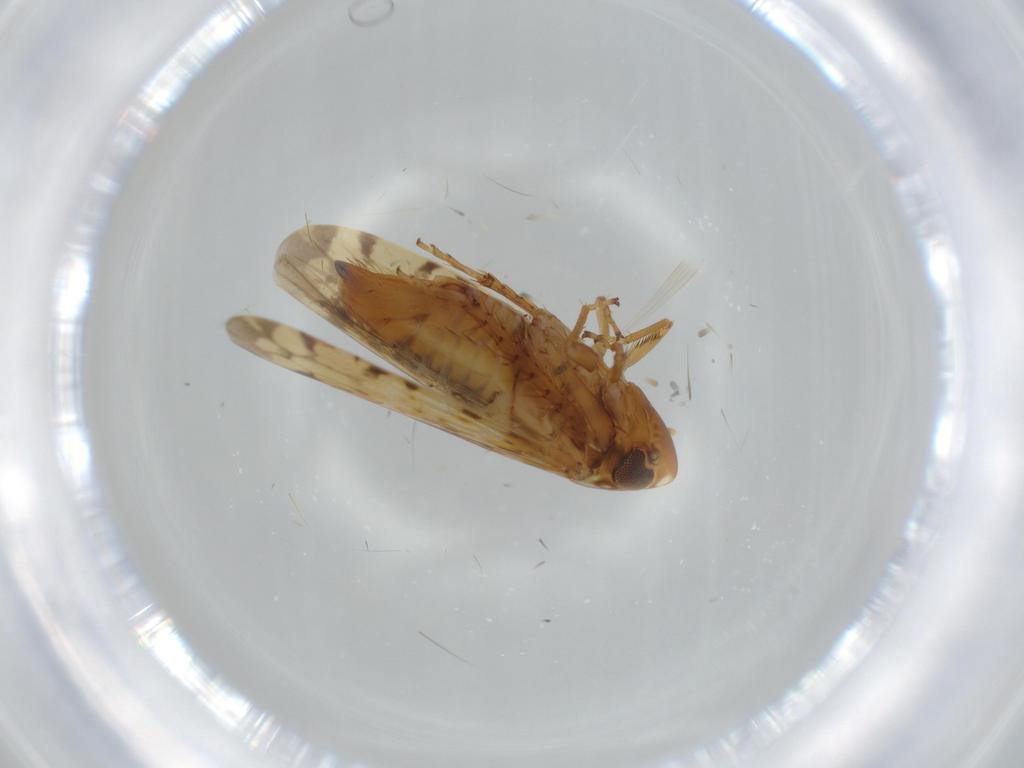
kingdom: Animalia
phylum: Arthropoda
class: Insecta
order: Hemiptera
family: Cicadellidae
